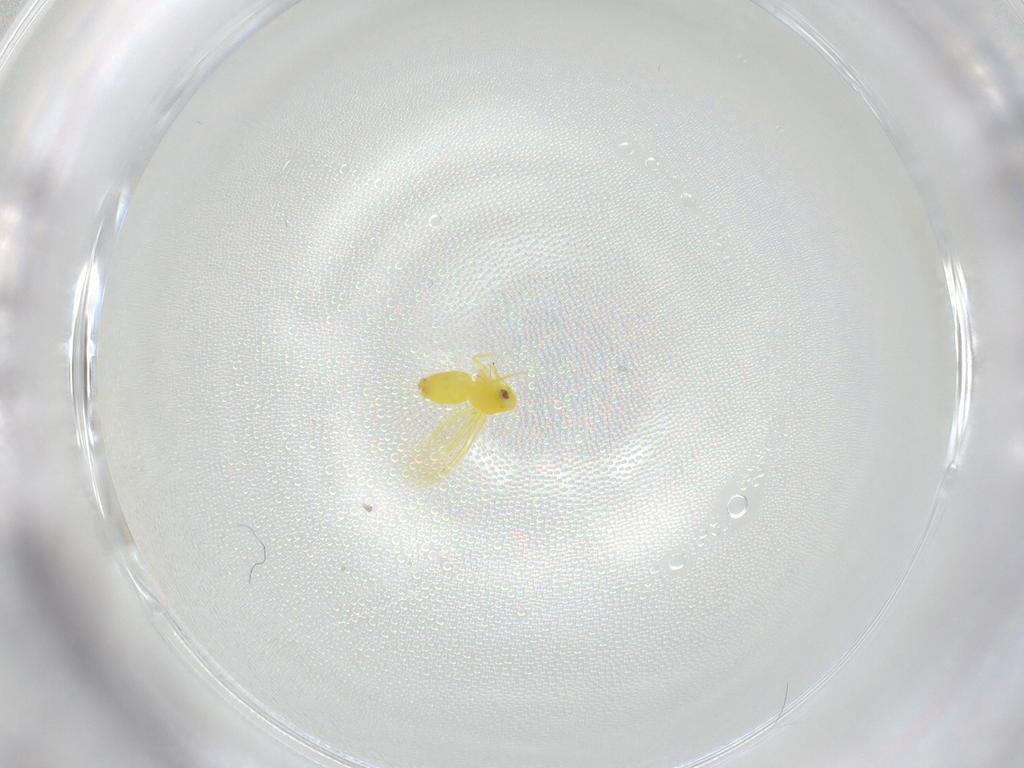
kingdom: Animalia
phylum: Arthropoda
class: Insecta
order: Hemiptera
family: Aleyrodidae
